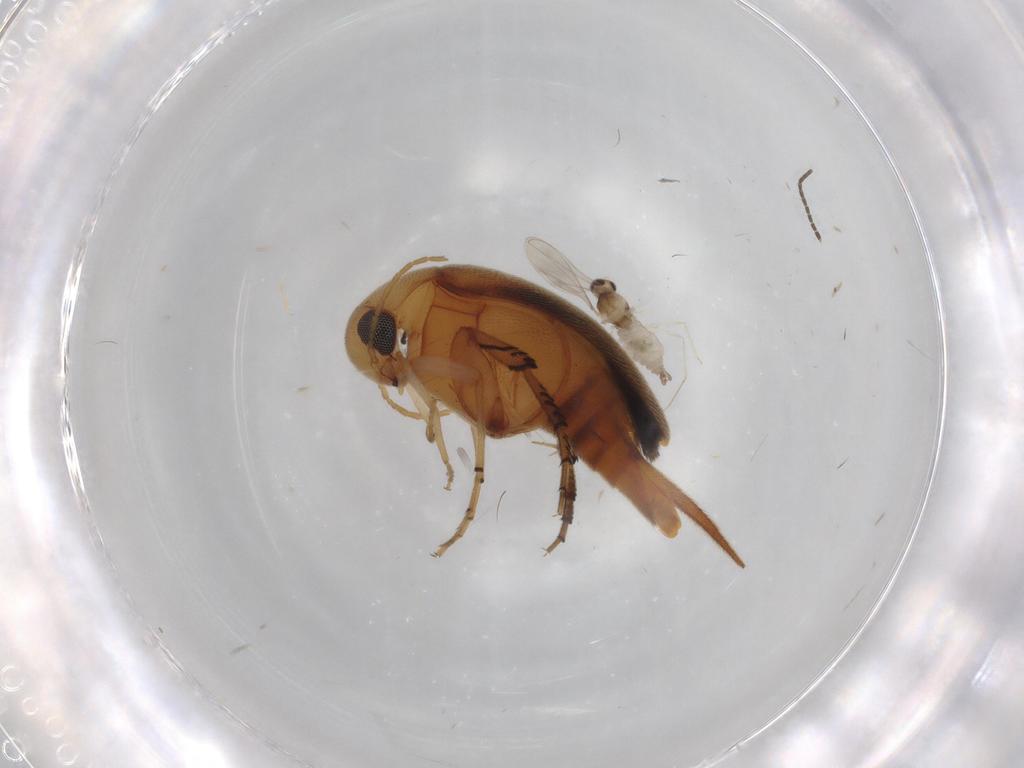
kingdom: Animalia
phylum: Arthropoda
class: Insecta
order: Coleoptera
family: Mordellidae
